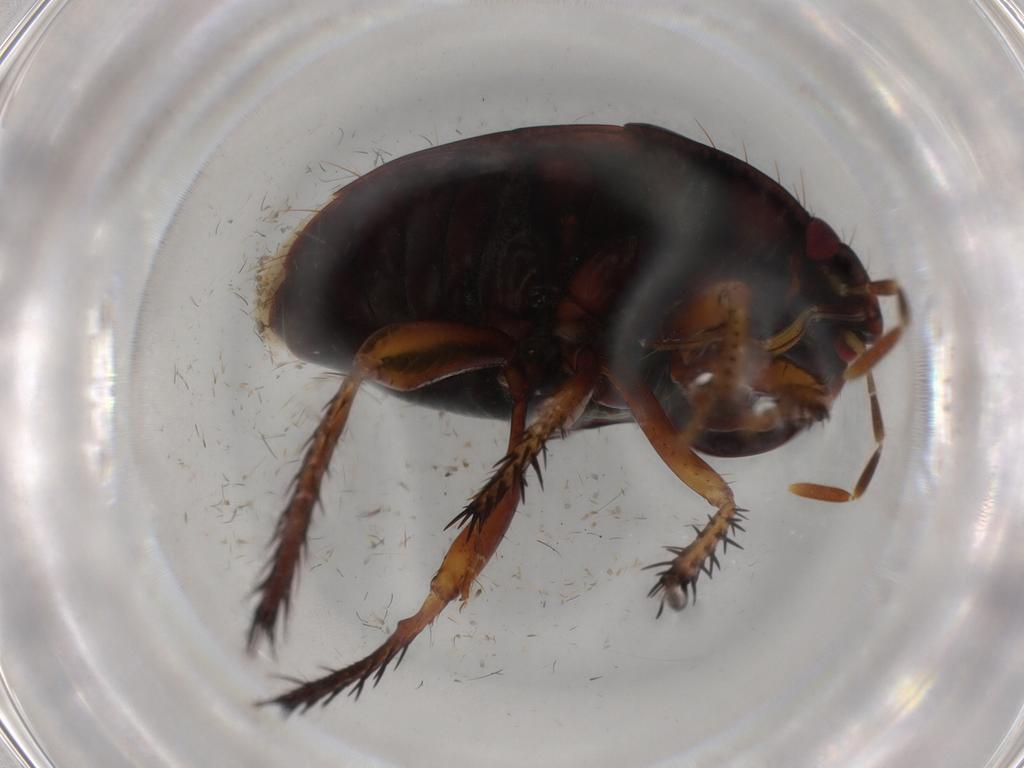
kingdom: Animalia
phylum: Arthropoda
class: Insecta
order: Hemiptera
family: Cydnidae
